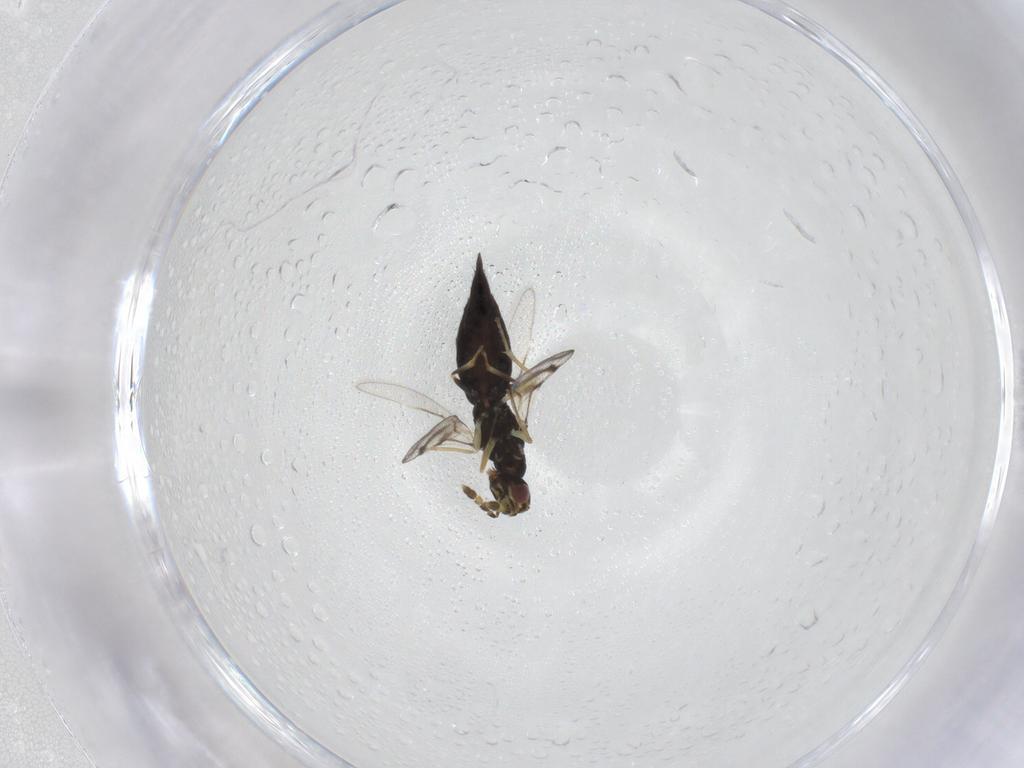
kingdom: Animalia
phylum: Arthropoda
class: Insecta
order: Hymenoptera
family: Eulophidae
